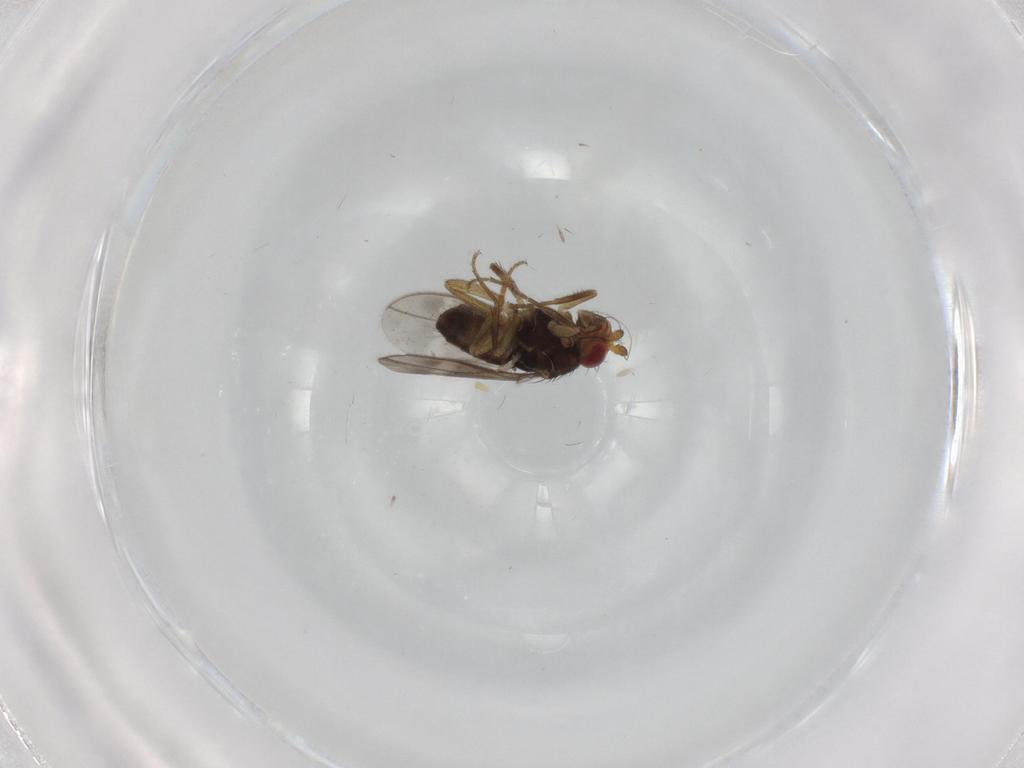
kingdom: Animalia
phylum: Arthropoda
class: Insecta
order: Diptera
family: Sphaeroceridae
